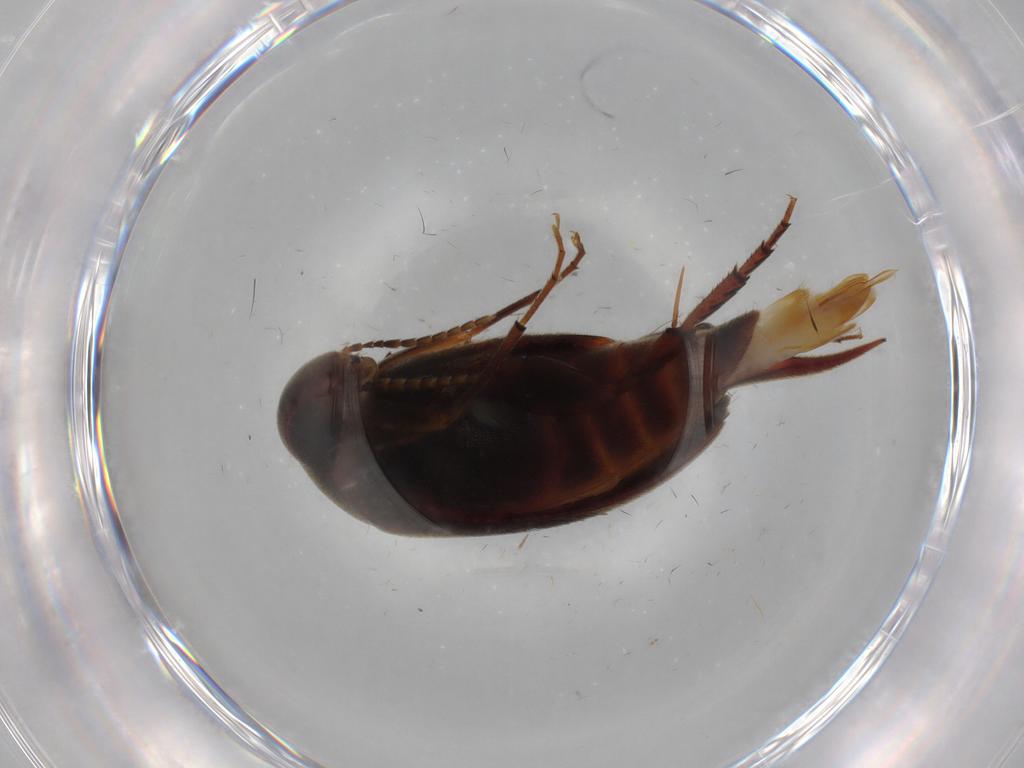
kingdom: Animalia
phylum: Arthropoda
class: Insecta
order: Coleoptera
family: Mordellidae
